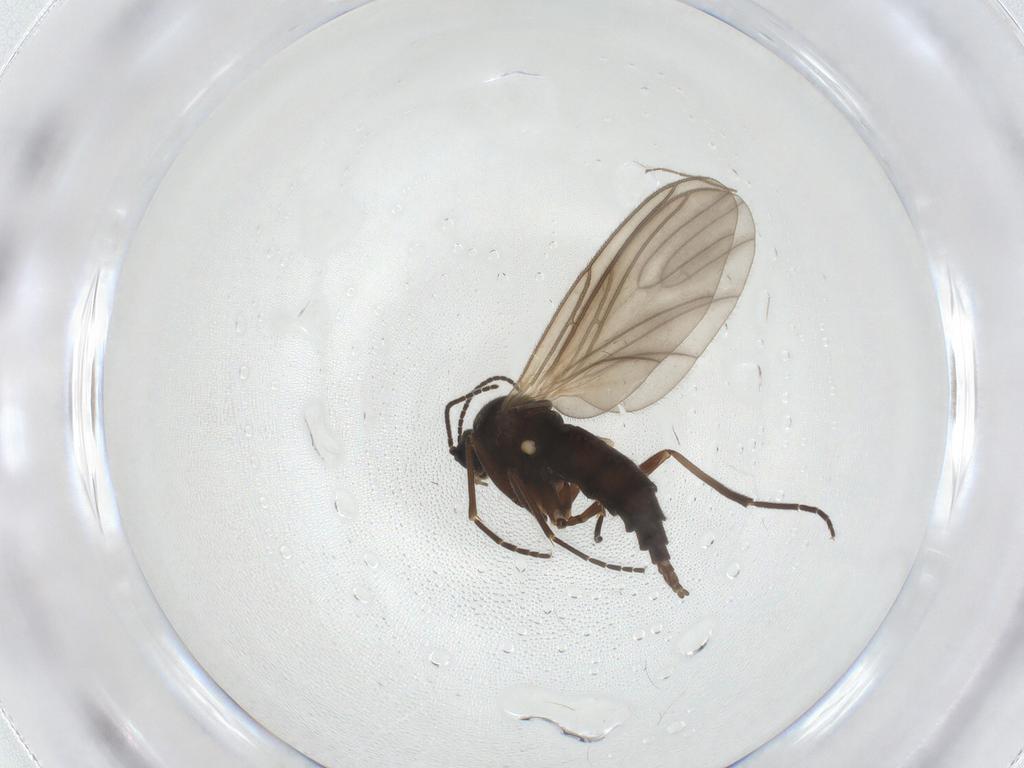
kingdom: Animalia
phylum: Arthropoda
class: Insecta
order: Diptera
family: Sciaridae
